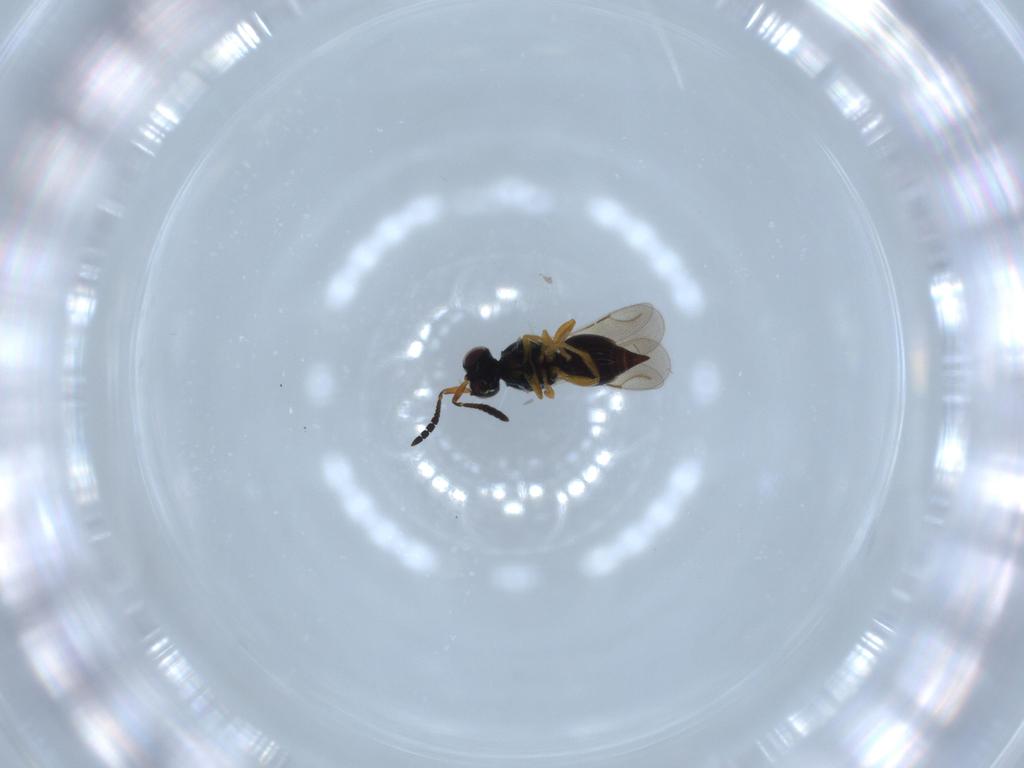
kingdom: Animalia
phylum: Arthropoda
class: Insecta
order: Hymenoptera
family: Ceraphronidae
